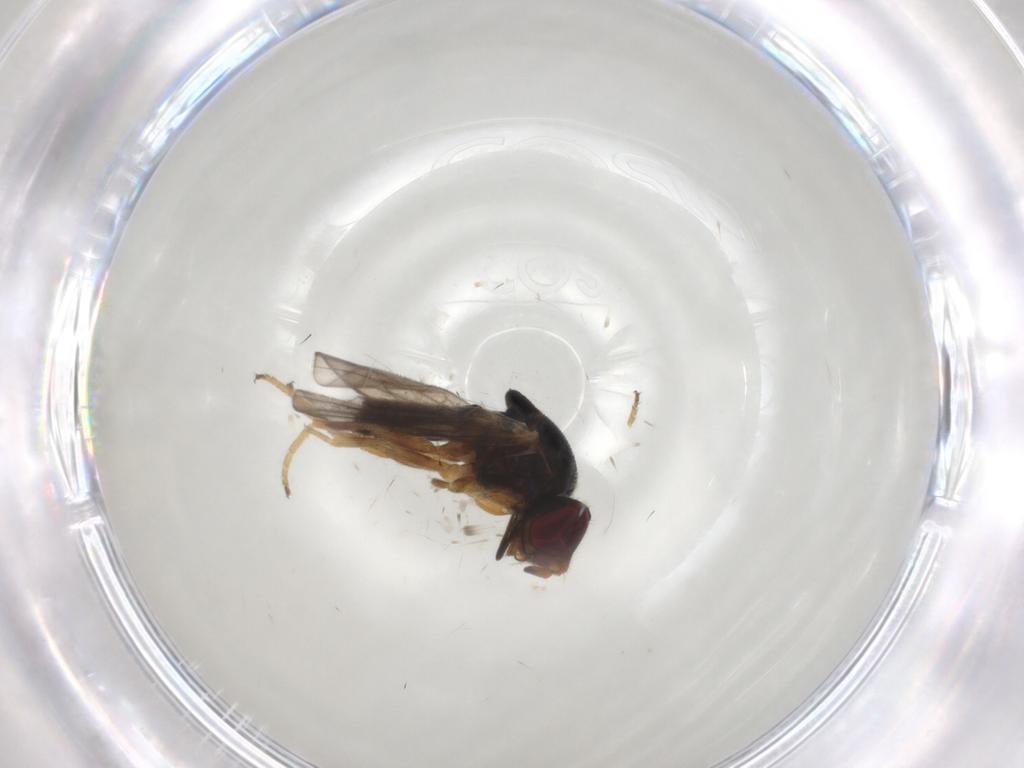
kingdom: Animalia
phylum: Arthropoda
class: Insecta
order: Diptera
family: Chloropidae
